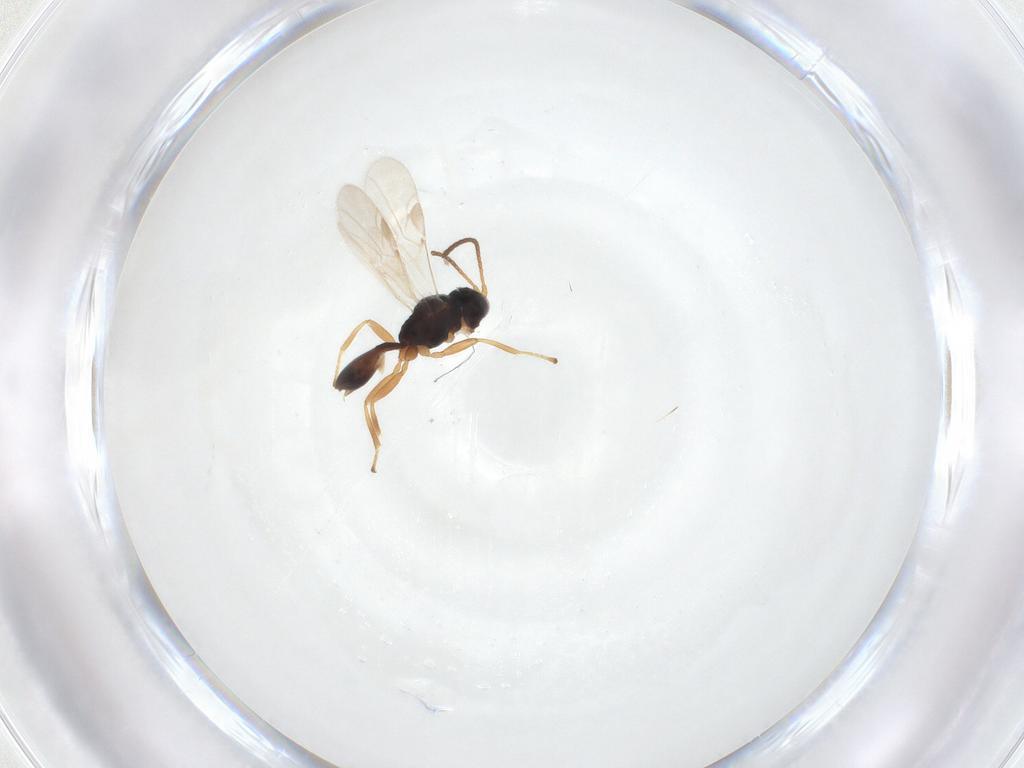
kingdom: Animalia
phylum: Arthropoda
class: Insecta
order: Hymenoptera
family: Braconidae
